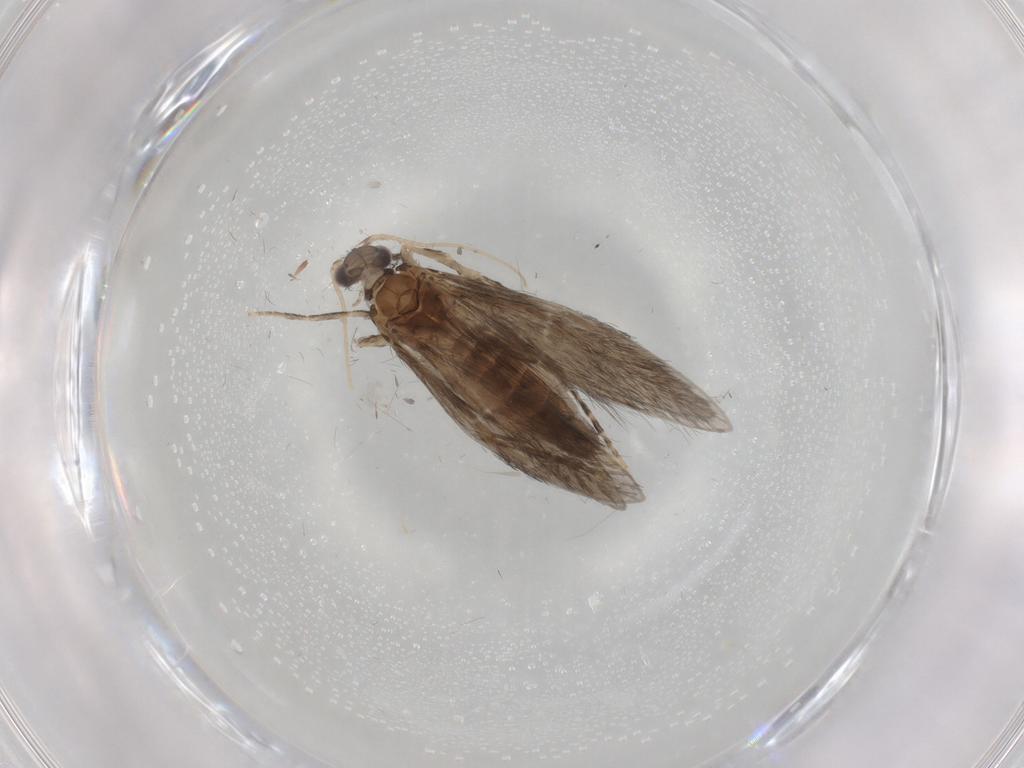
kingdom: Animalia
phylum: Arthropoda
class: Insecta
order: Trichoptera
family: Hydroptilidae
